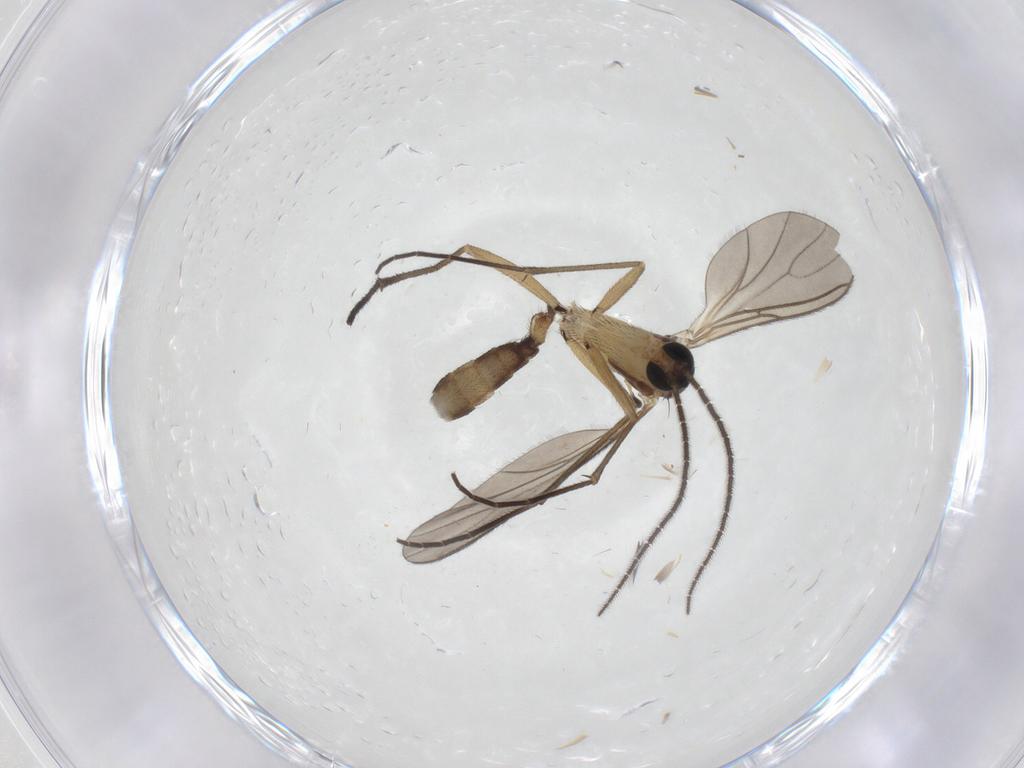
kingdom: Animalia
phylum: Arthropoda
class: Insecta
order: Diptera
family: Sciaridae
